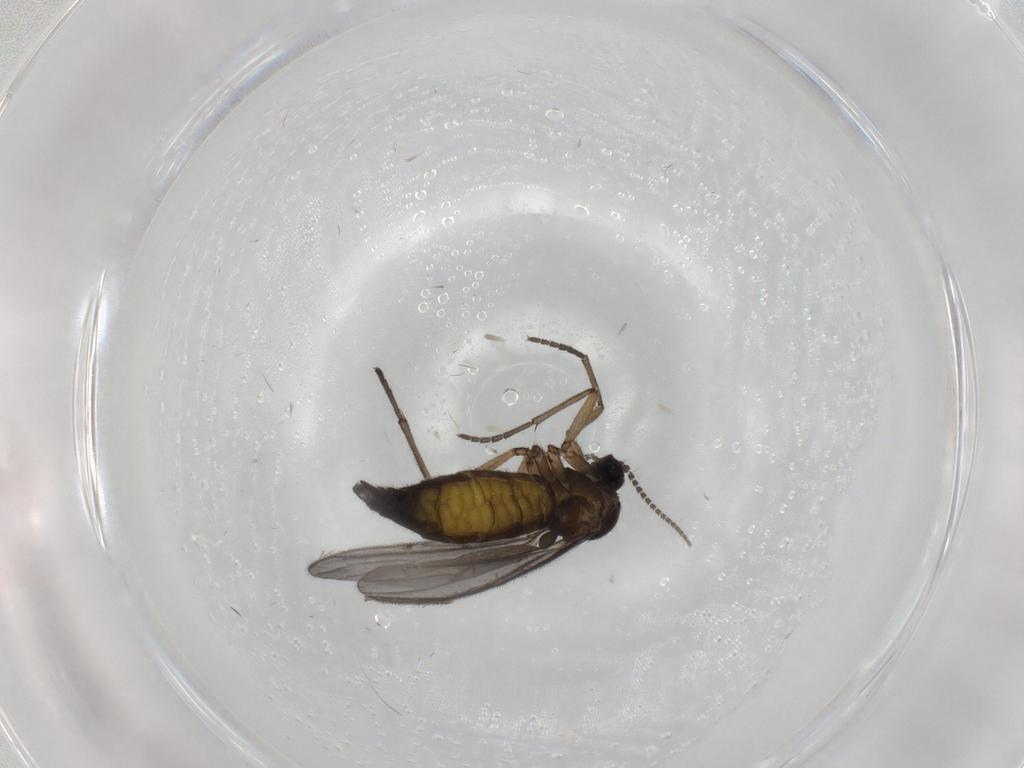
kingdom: Animalia
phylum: Arthropoda
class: Insecta
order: Diptera
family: Sciaridae
